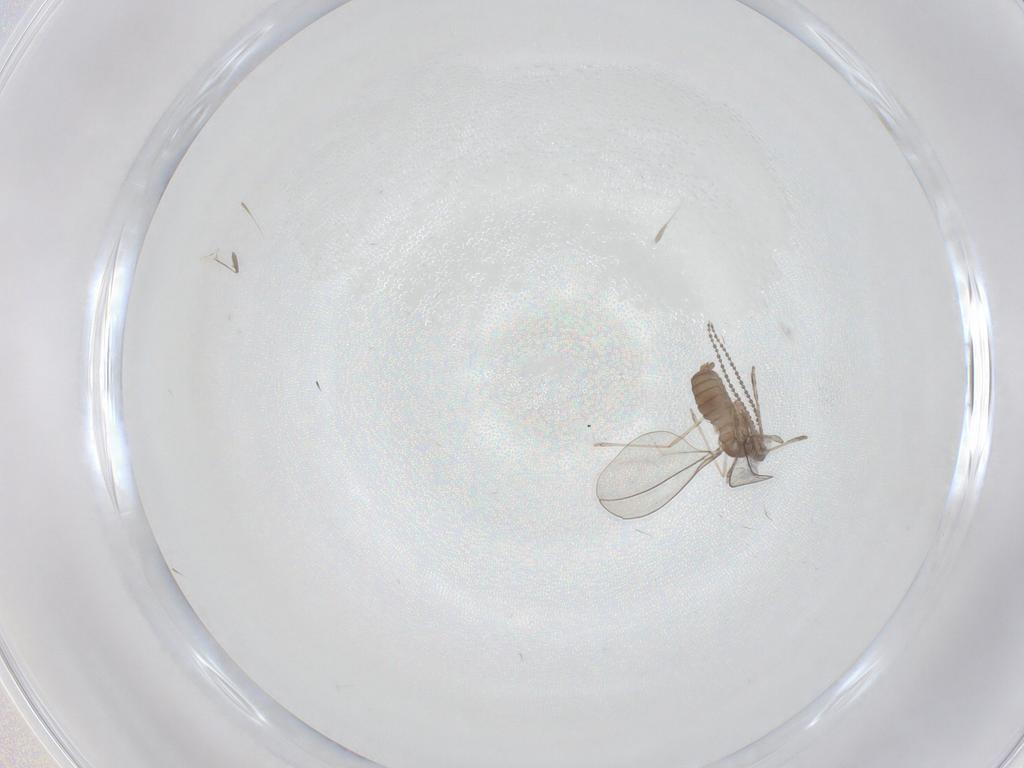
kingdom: Animalia
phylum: Arthropoda
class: Insecta
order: Diptera
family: Cecidomyiidae
